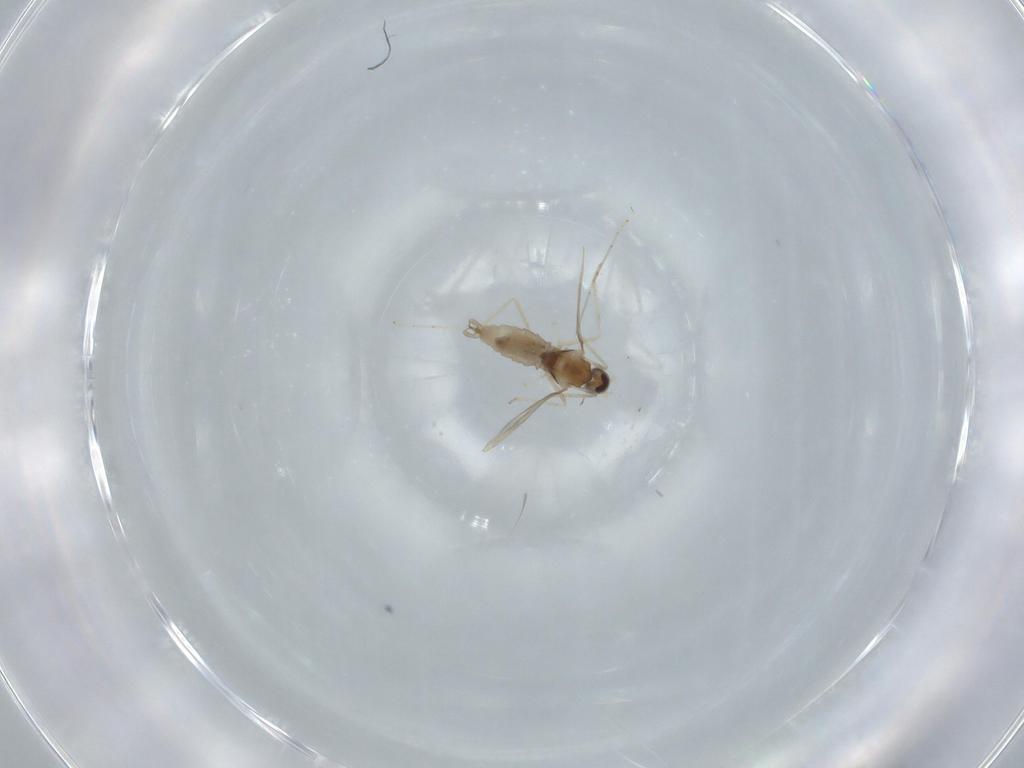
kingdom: Animalia
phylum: Arthropoda
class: Insecta
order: Diptera
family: Cecidomyiidae
